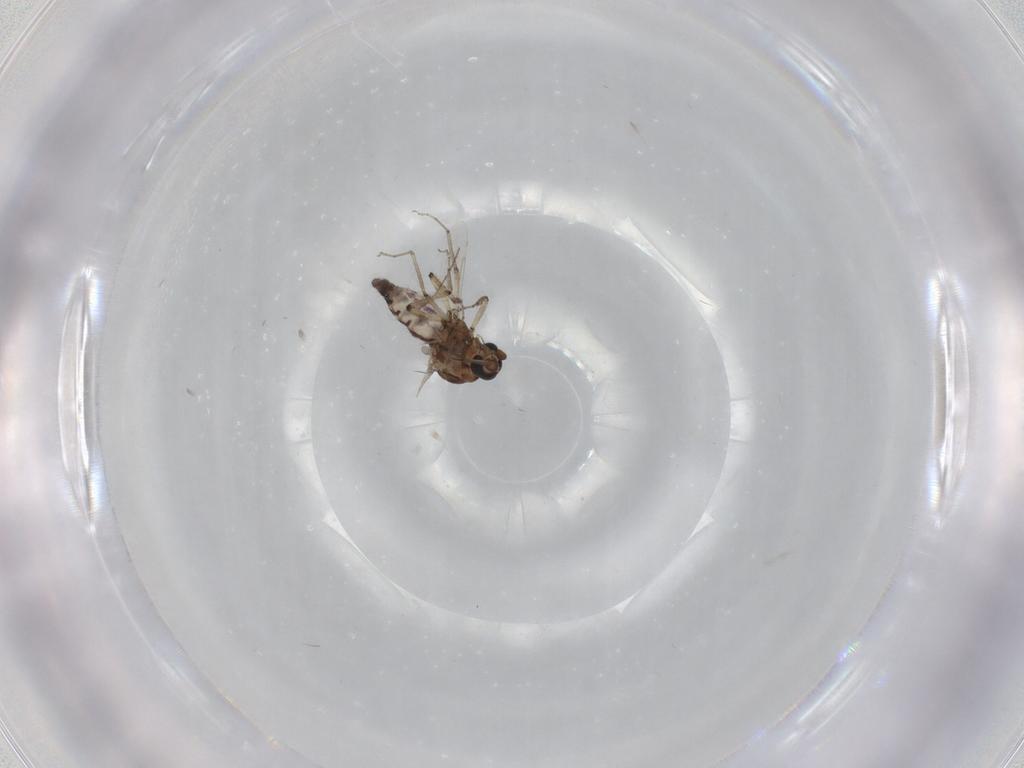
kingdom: Animalia
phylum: Arthropoda
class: Insecta
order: Diptera
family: Ceratopogonidae
